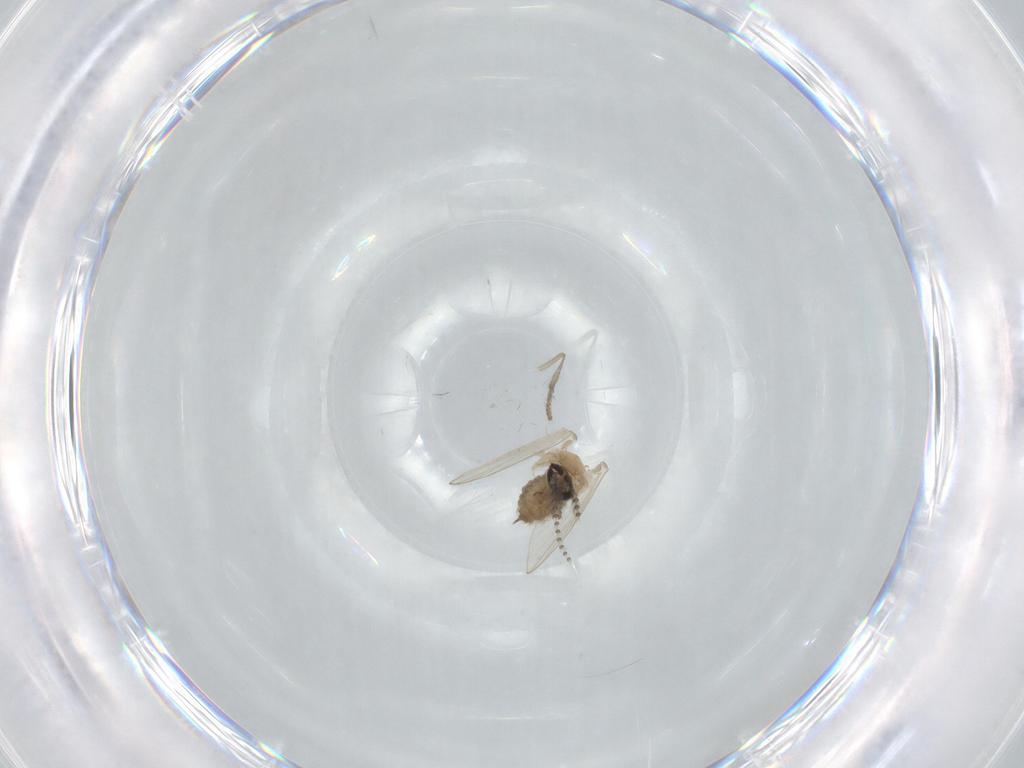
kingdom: Animalia
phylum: Arthropoda
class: Insecta
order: Diptera
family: Psychodidae
